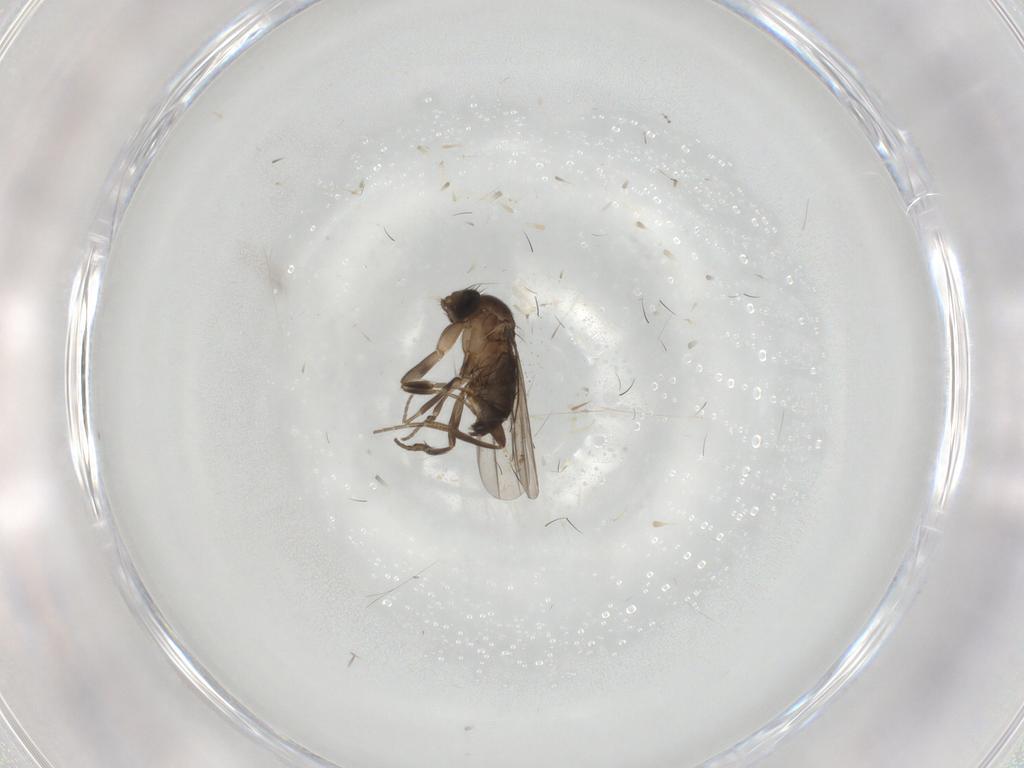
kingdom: Animalia
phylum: Arthropoda
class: Insecta
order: Diptera
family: Phoridae
